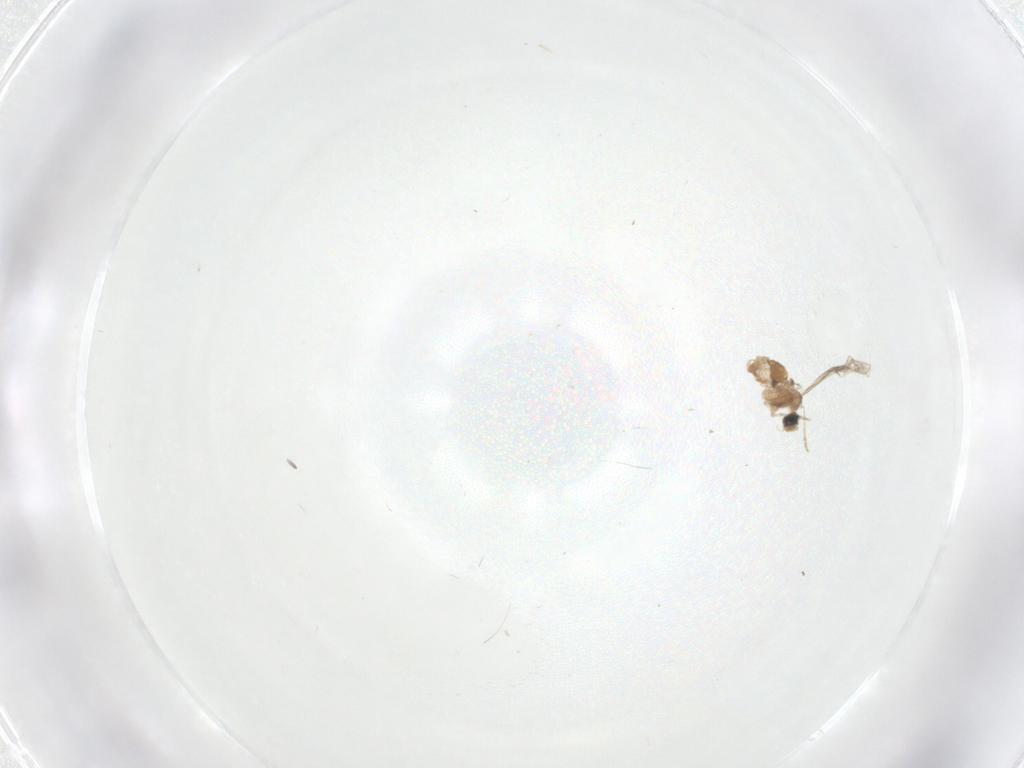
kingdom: Animalia
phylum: Arthropoda
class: Insecta
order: Diptera
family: Cecidomyiidae
